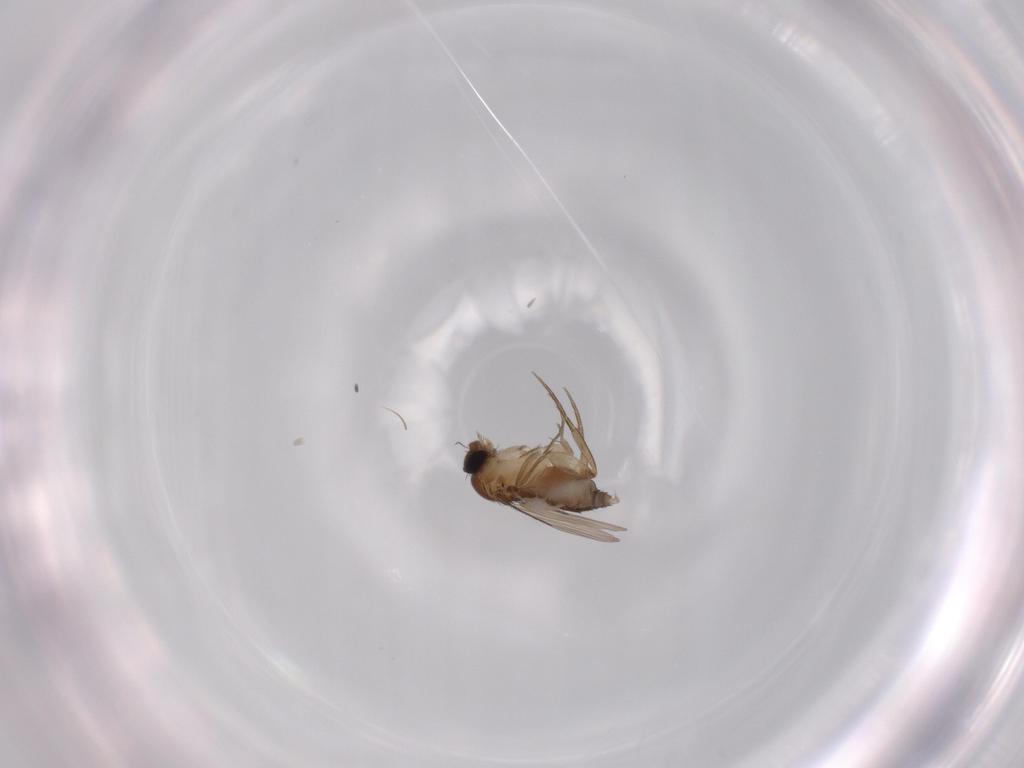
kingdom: Animalia
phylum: Arthropoda
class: Insecta
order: Diptera
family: Phoridae
